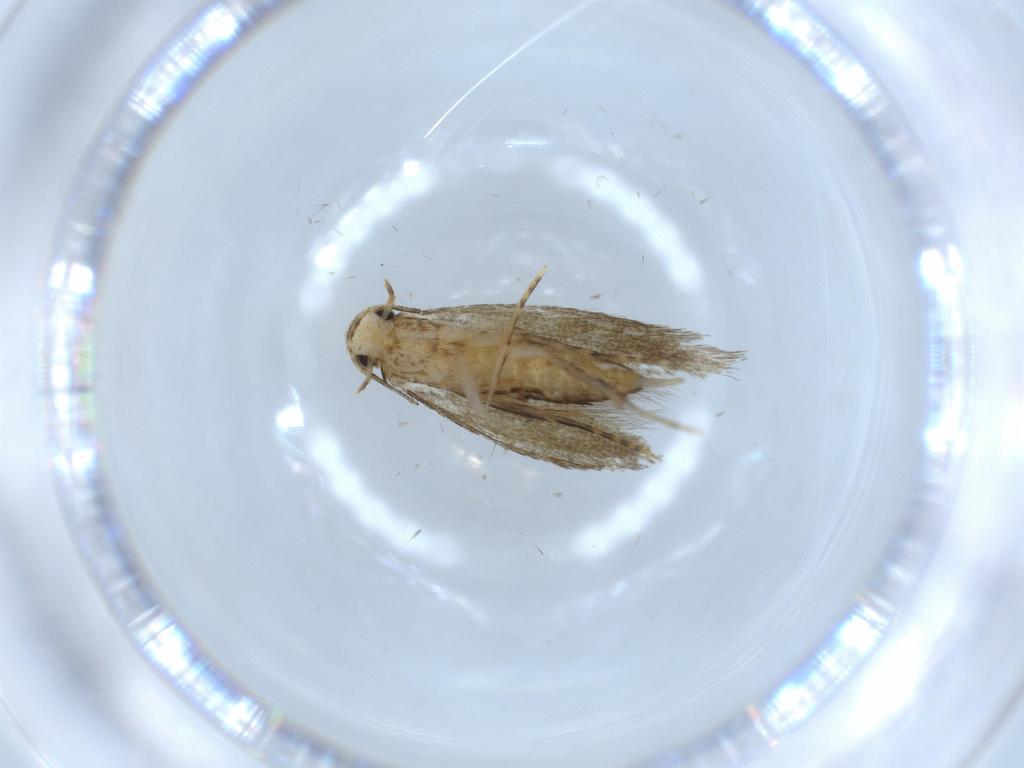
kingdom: Animalia
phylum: Arthropoda
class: Insecta
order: Lepidoptera
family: Tineidae
